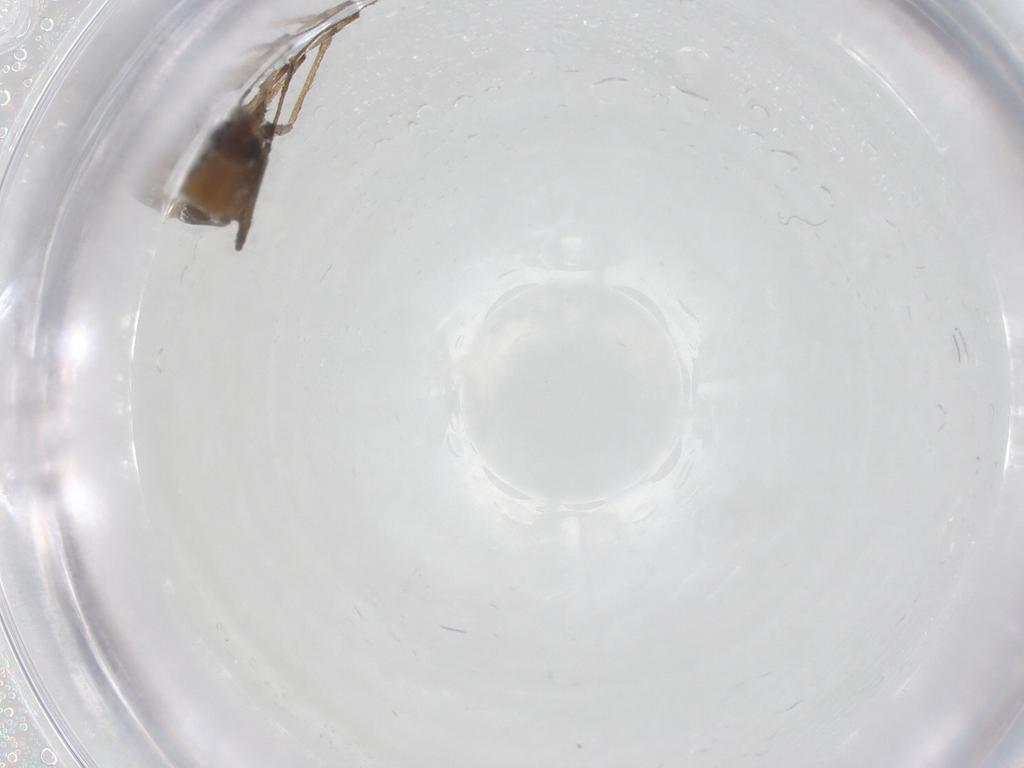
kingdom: Animalia
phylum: Arthropoda
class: Insecta
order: Diptera
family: Chironomidae
